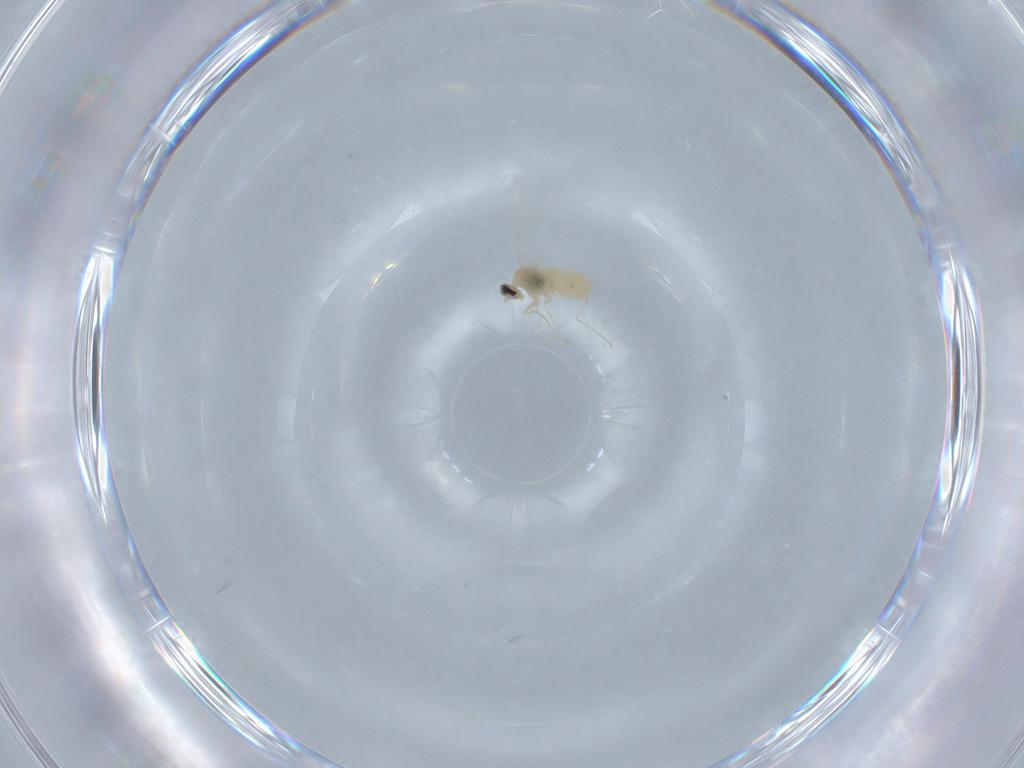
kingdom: Animalia
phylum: Arthropoda
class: Insecta
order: Diptera
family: Cecidomyiidae
